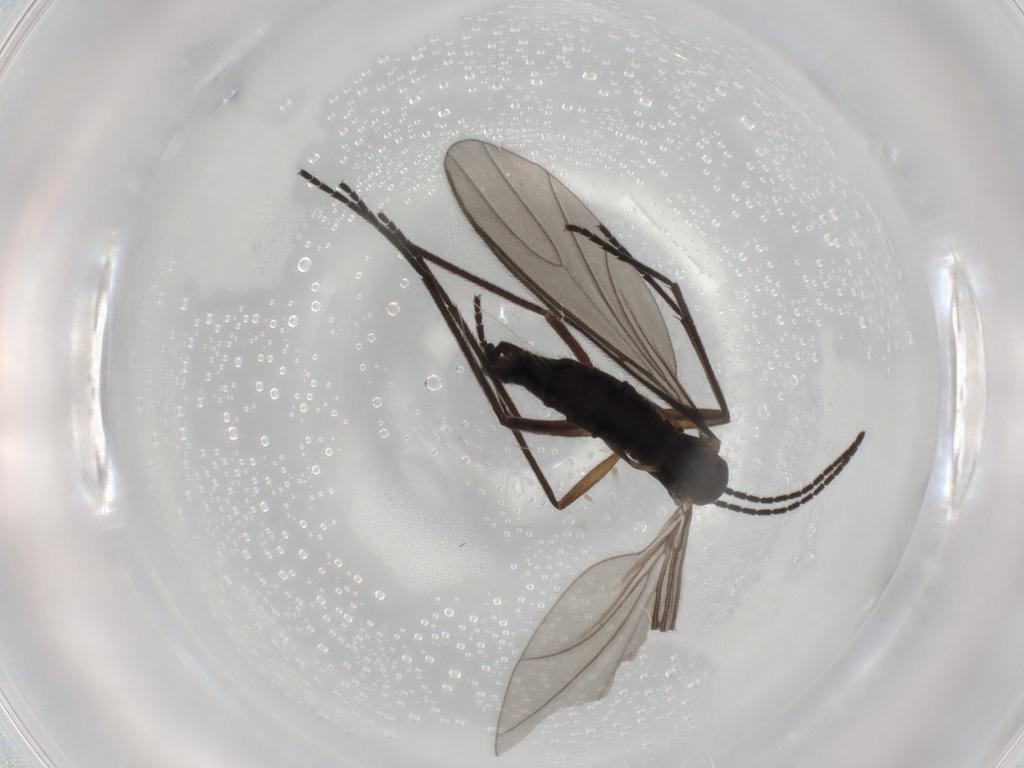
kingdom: Animalia
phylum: Arthropoda
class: Insecta
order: Diptera
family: Sciaridae
